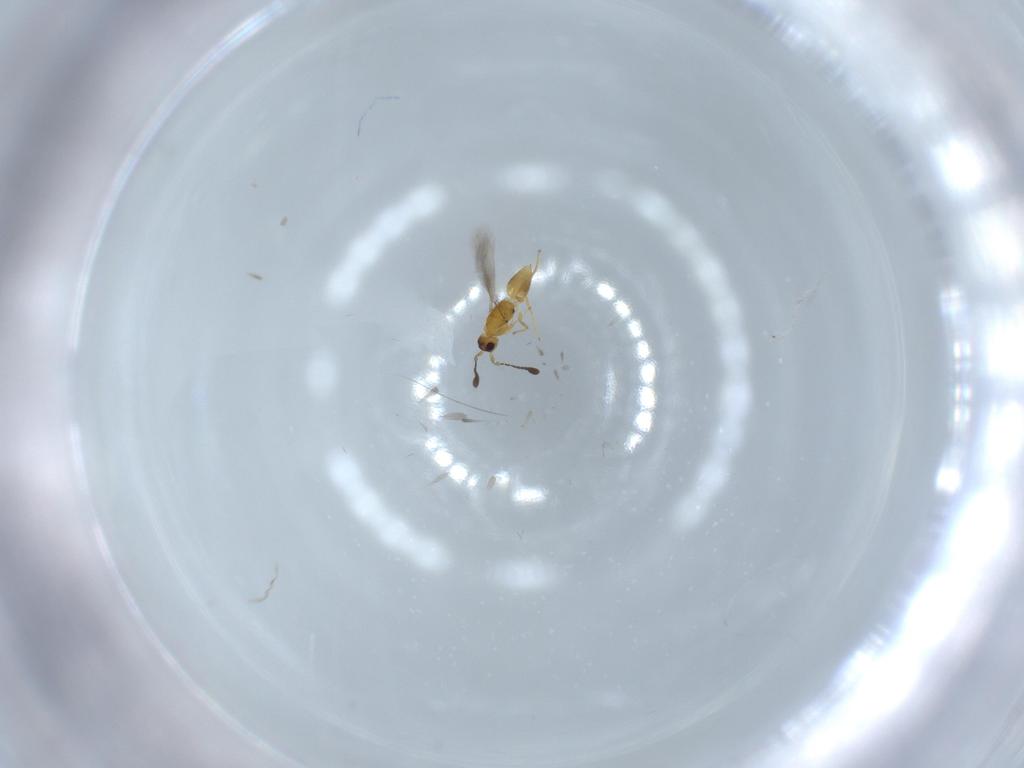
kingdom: Animalia
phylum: Arthropoda
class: Insecta
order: Hymenoptera
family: Mymaridae
